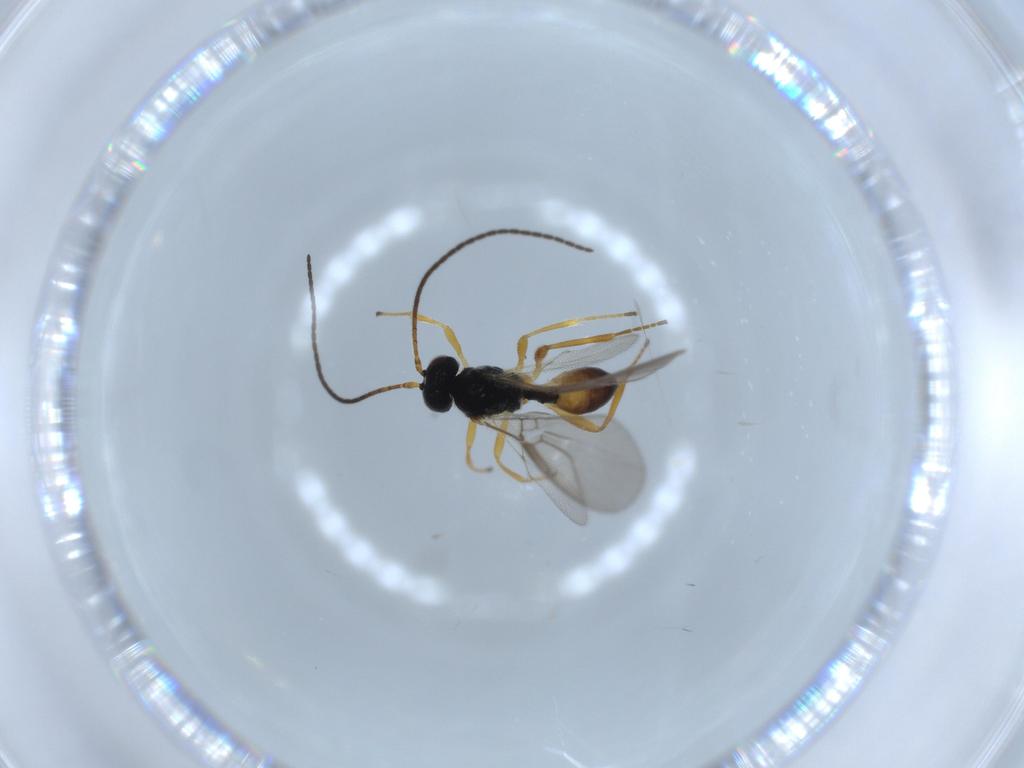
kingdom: Animalia
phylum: Arthropoda
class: Insecta
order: Hymenoptera
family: Braconidae
